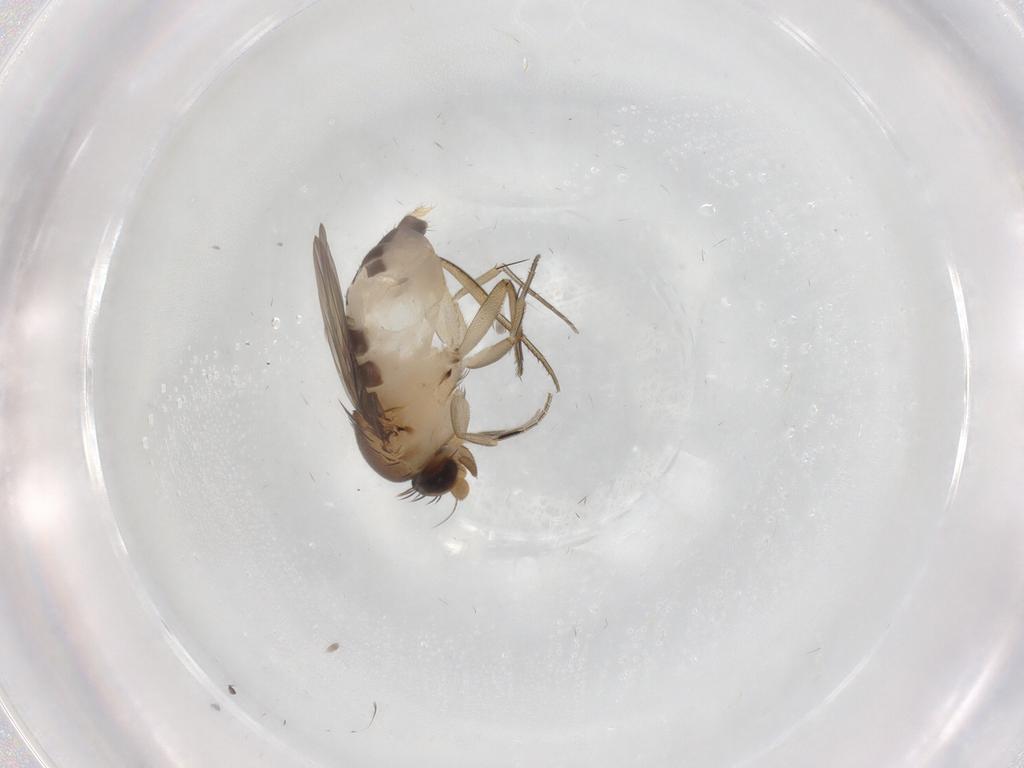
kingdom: Animalia
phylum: Arthropoda
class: Insecta
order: Diptera
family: Phoridae
